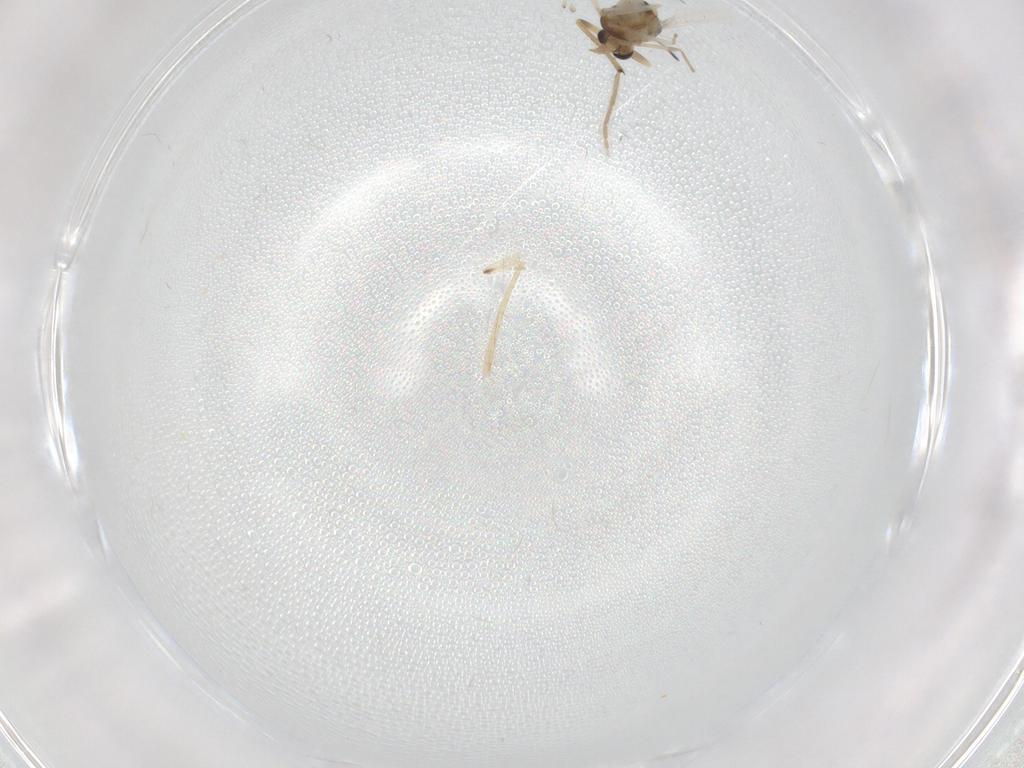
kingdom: Animalia
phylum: Arthropoda
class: Insecta
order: Diptera
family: Chironomidae
